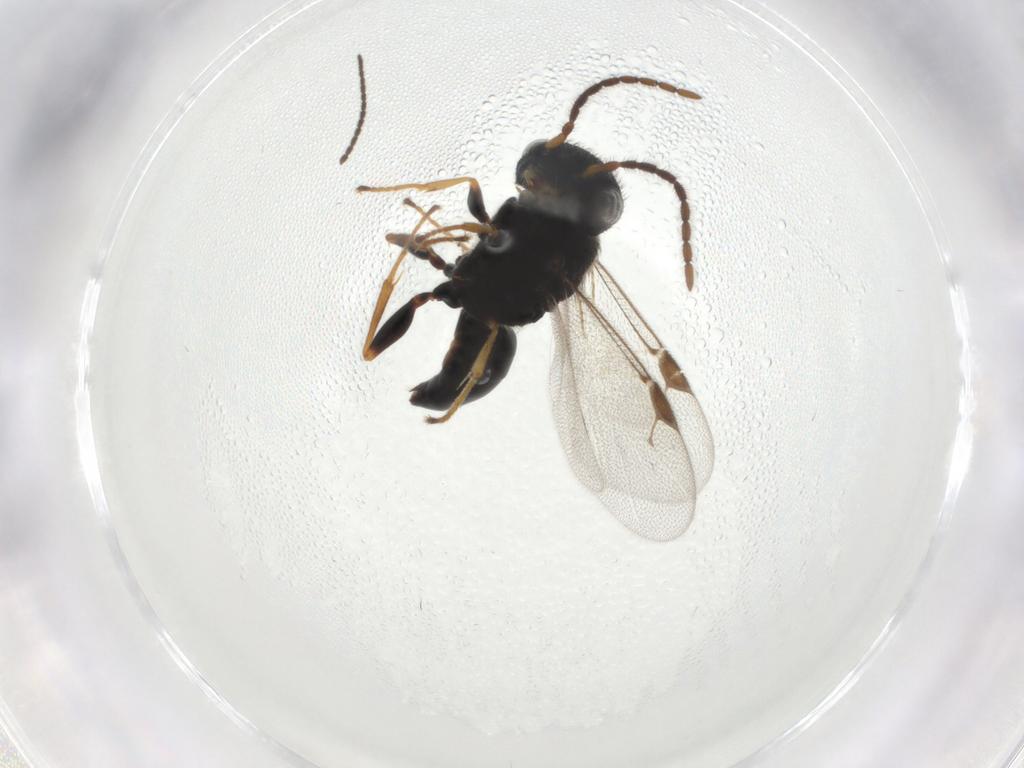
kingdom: Animalia
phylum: Arthropoda
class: Insecta
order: Hymenoptera
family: Dryinidae
